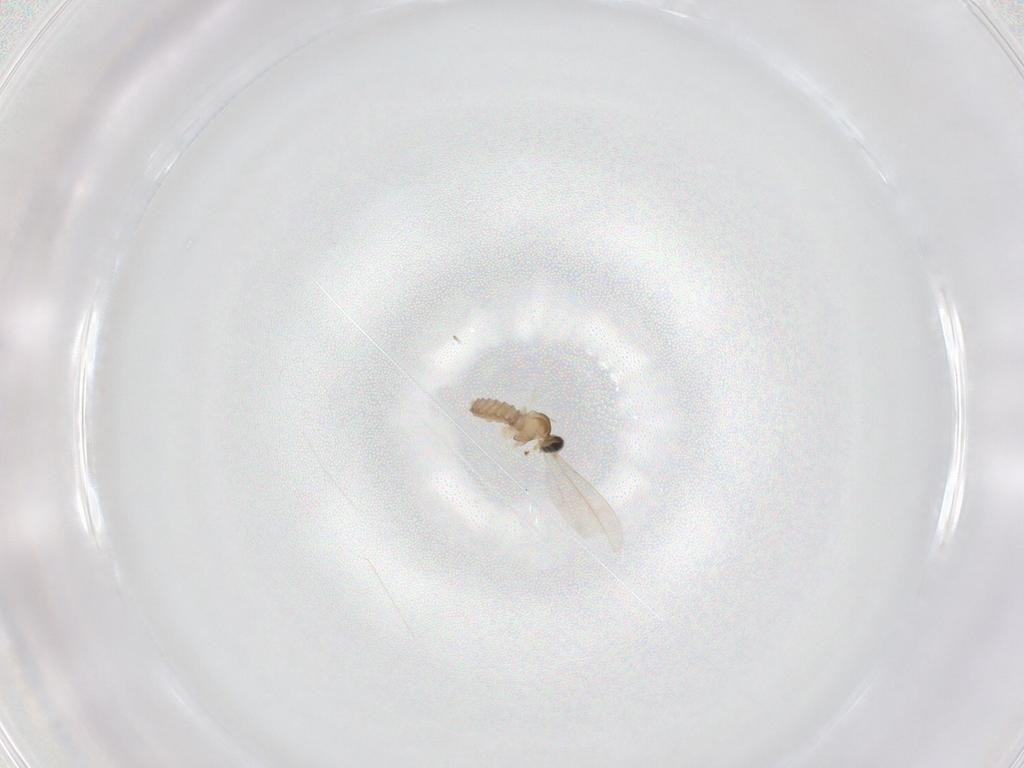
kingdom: Animalia
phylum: Arthropoda
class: Insecta
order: Diptera
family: Cecidomyiidae
